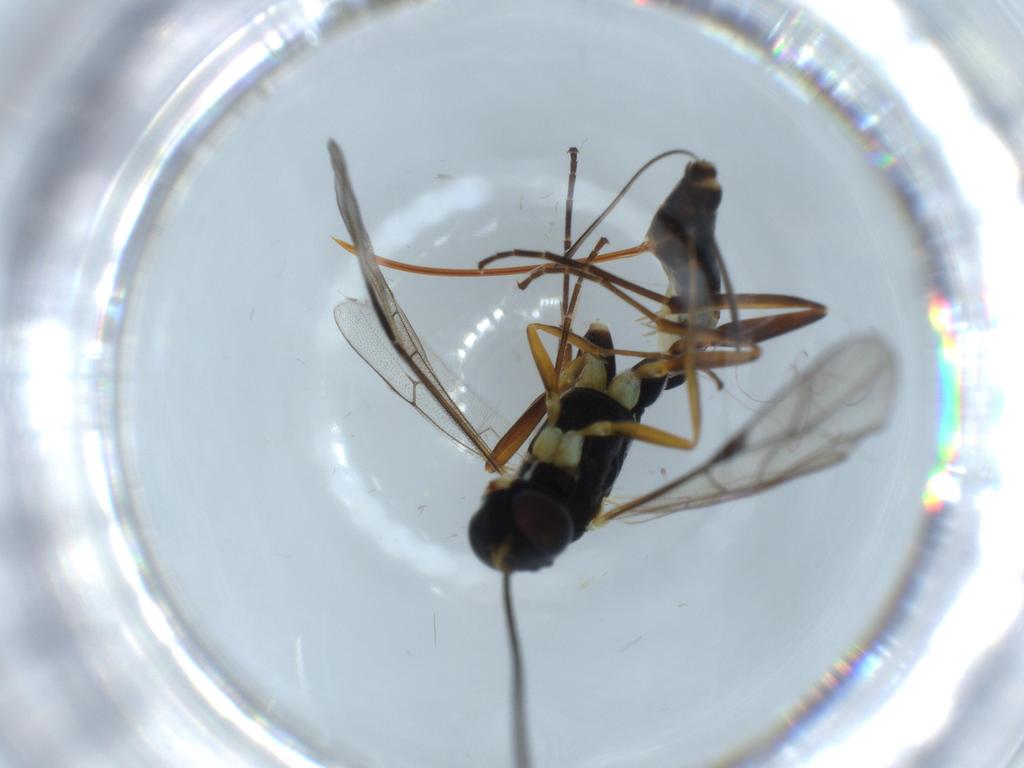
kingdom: Animalia
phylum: Arthropoda
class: Insecta
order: Hymenoptera
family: Ichneumonidae
